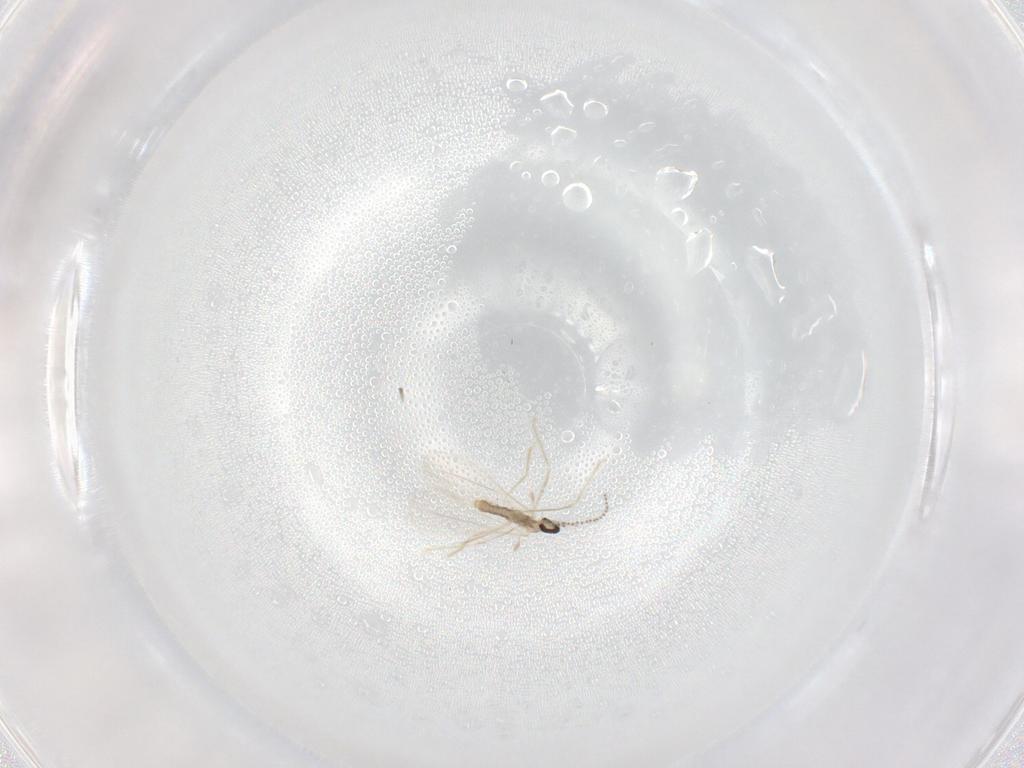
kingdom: Animalia
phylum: Arthropoda
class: Insecta
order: Diptera
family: Cecidomyiidae
